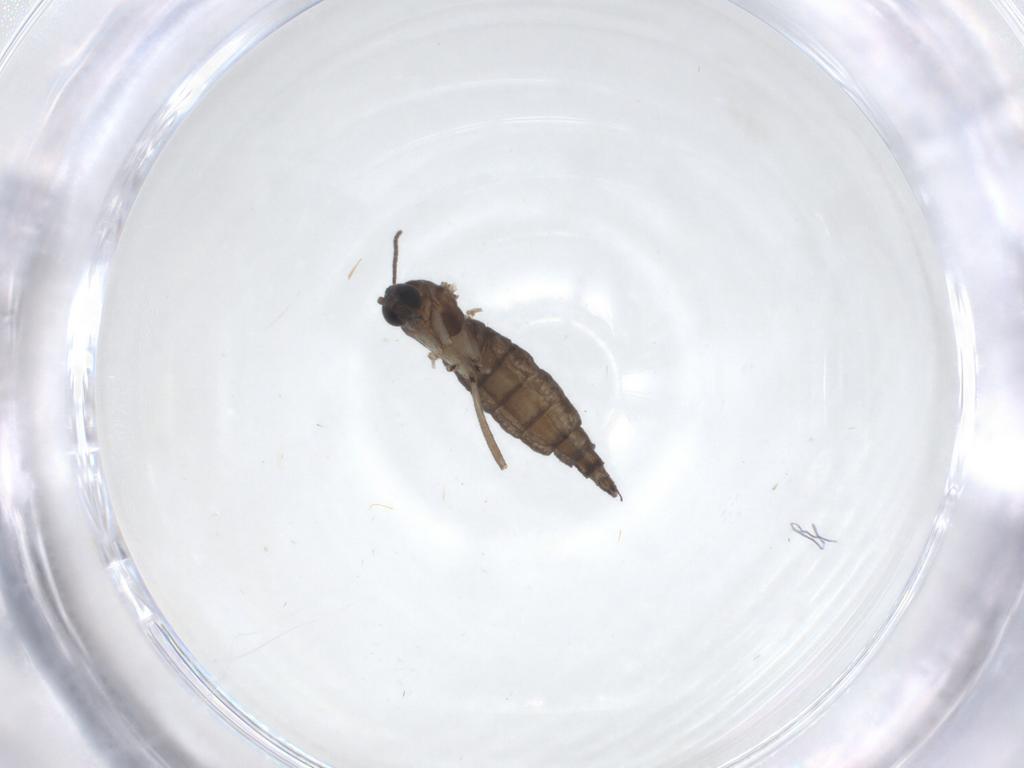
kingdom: Animalia
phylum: Arthropoda
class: Insecta
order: Diptera
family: Sciaridae
